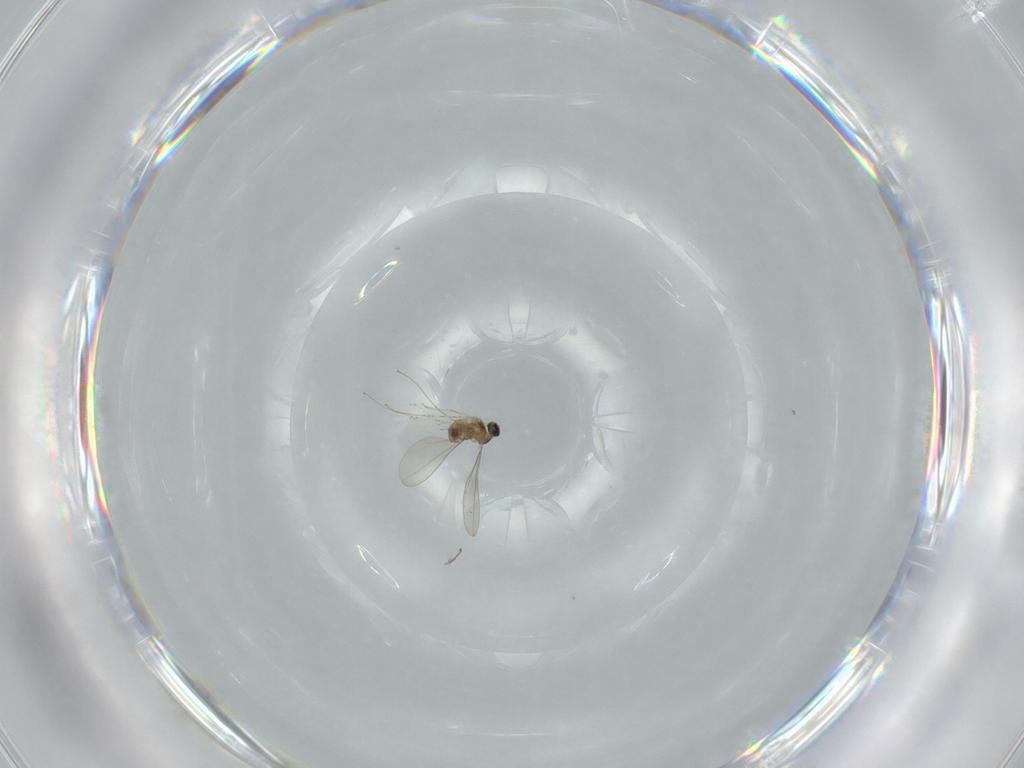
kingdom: Animalia
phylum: Arthropoda
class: Insecta
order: Diptera
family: Cecidomyiidae
